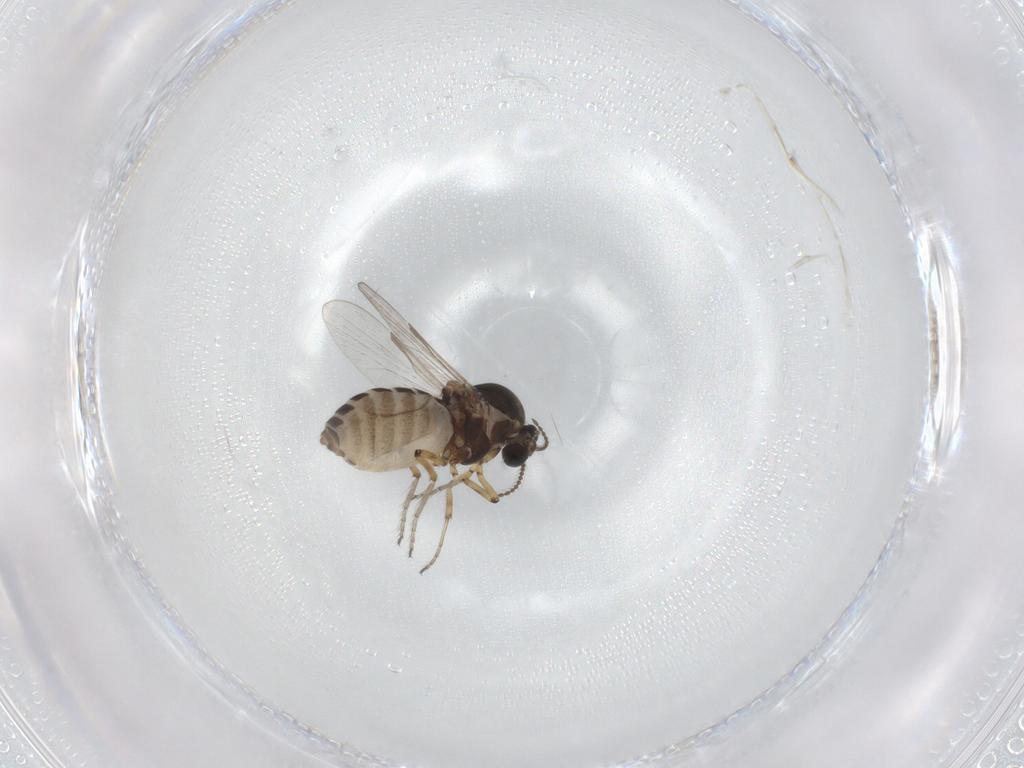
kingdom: Animalia
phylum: Arthropoda
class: Insecta
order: Diptera
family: Ceratopogonidae
